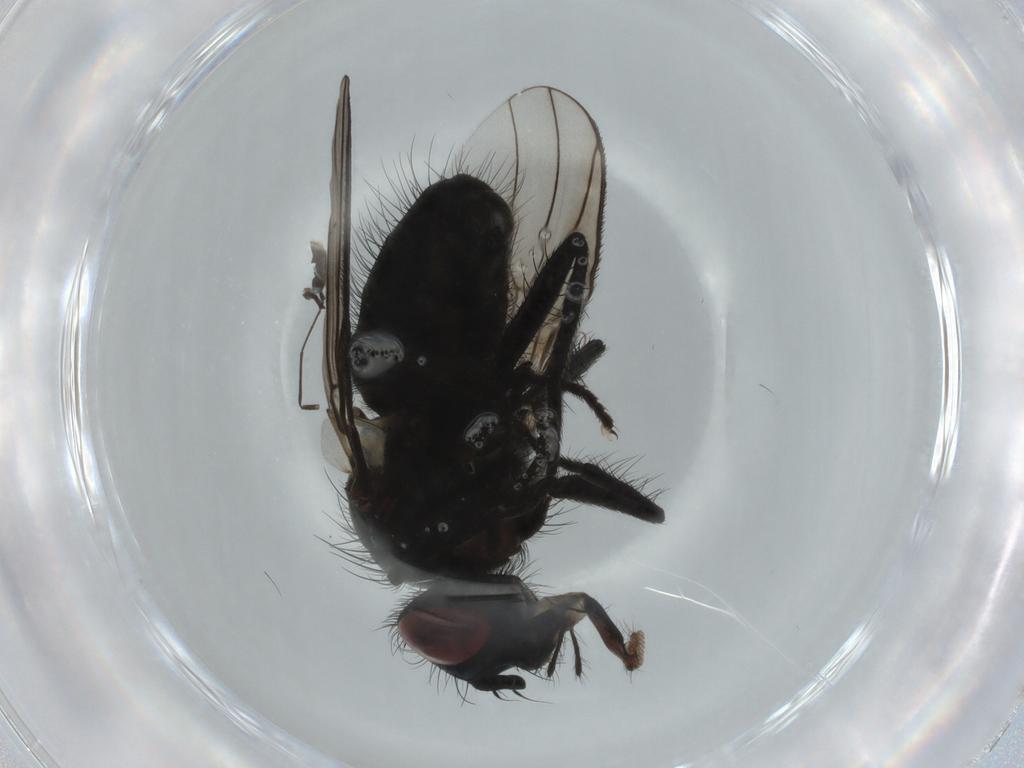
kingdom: Animalia
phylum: Arthropoda
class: Insecta
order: Diptera
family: Muscidae
